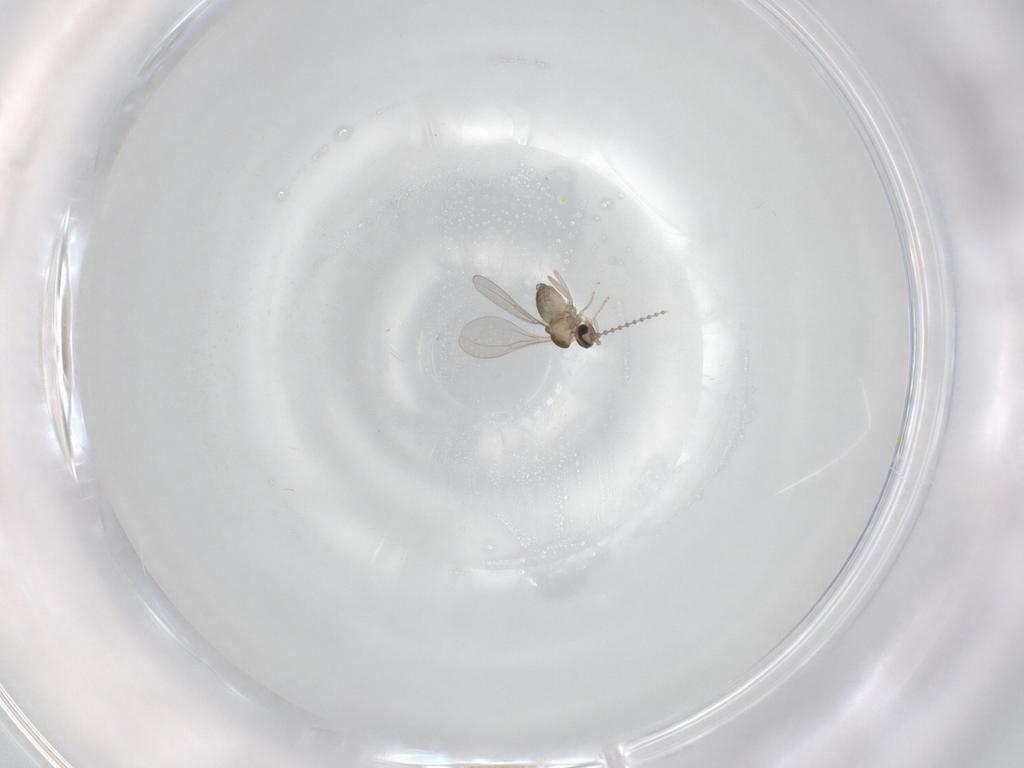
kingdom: Animalia
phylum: Arthropoda
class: Insecta
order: Diptera
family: Cecidomyiidae
